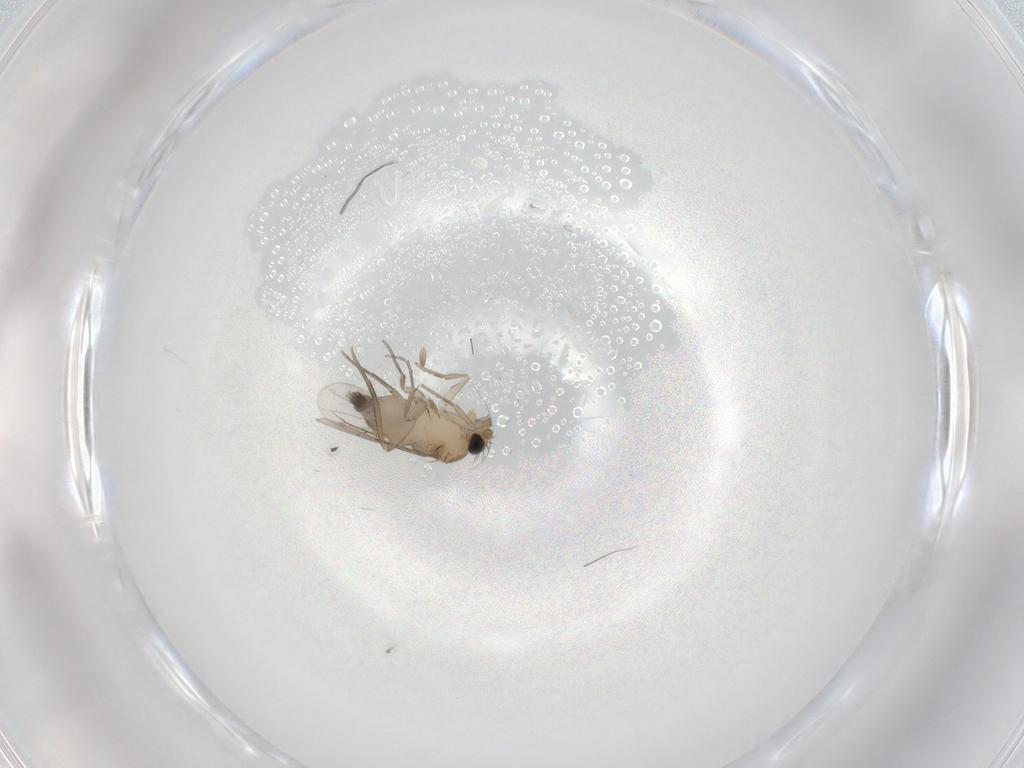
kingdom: Animalia
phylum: Arthropoda
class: Insecta
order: Diptera
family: Phoridae
